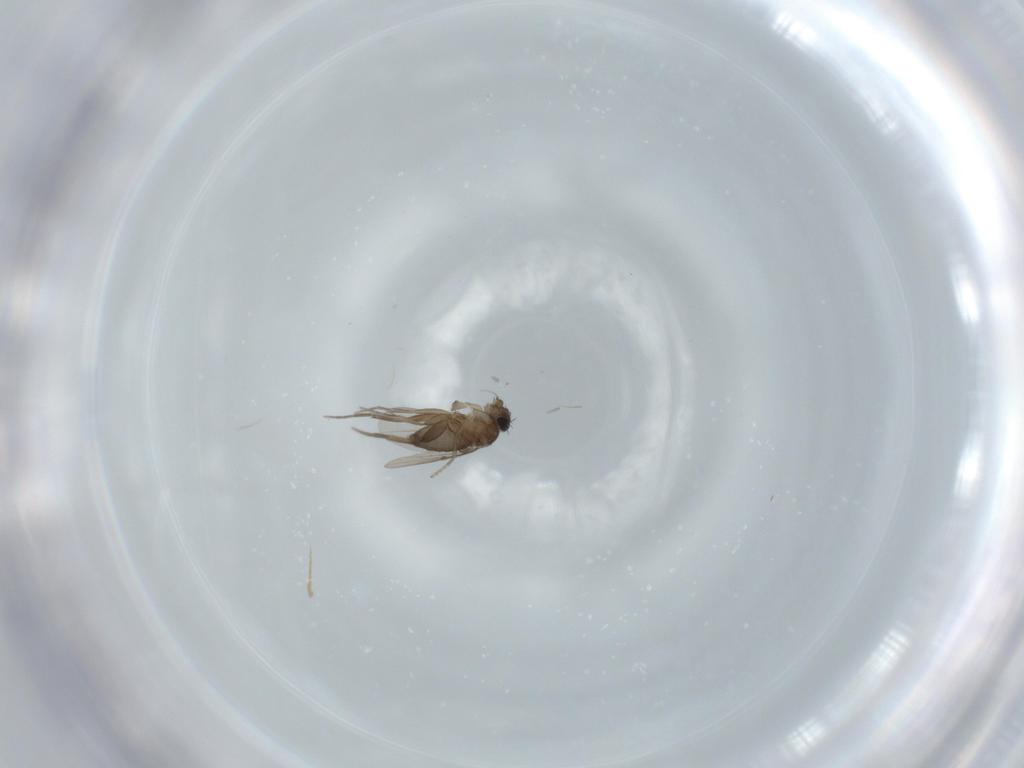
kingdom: Animalia
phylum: Arthropoda
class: Insecta
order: Diptera
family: Phoridae
